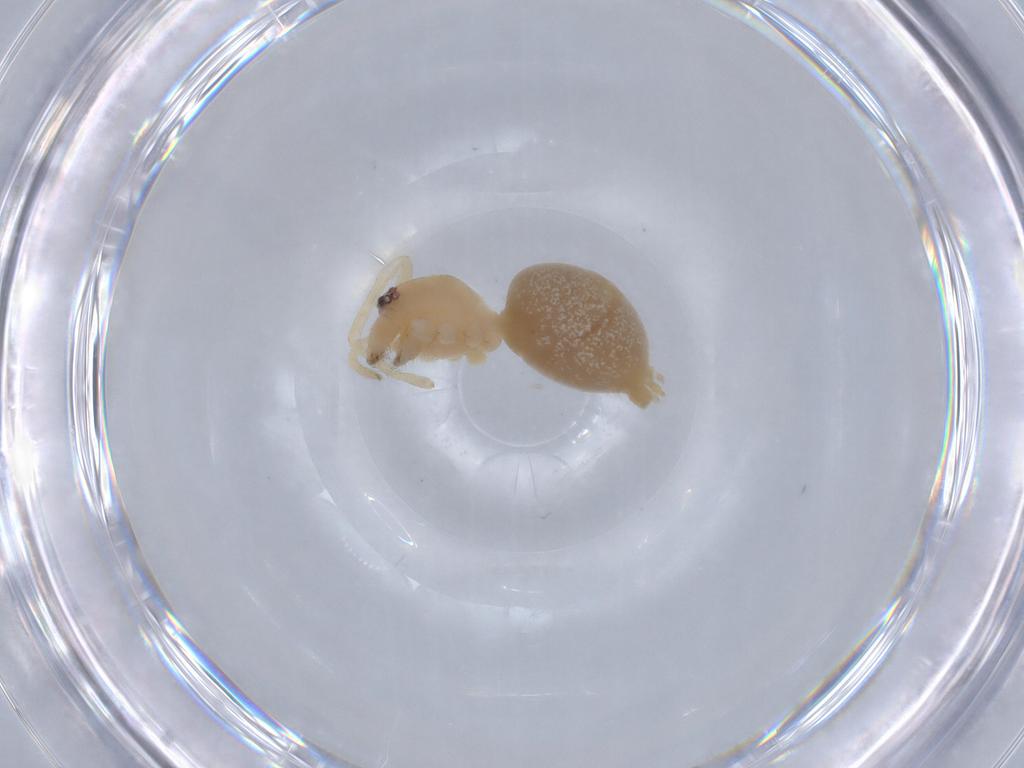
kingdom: Animalia
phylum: Arthropoda
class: Arachnida
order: Araneae
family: Cheiracanthiidae
